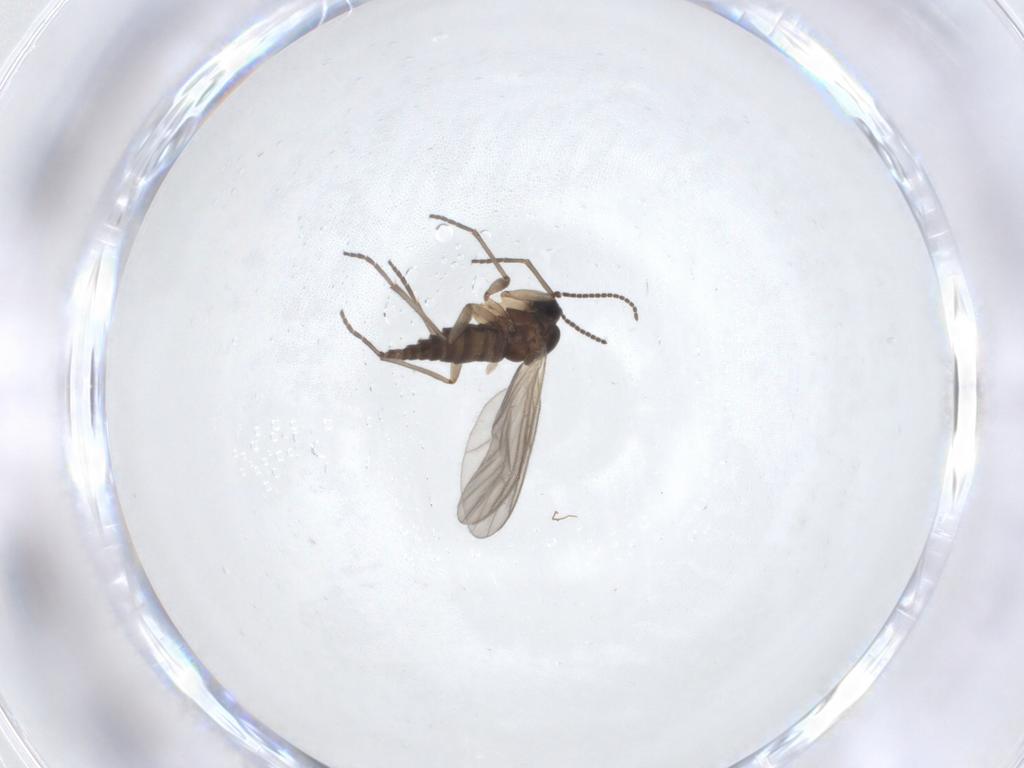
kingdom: Animalia
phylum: Arthropoda
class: Insecta
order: Diptera
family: Sciaridae
